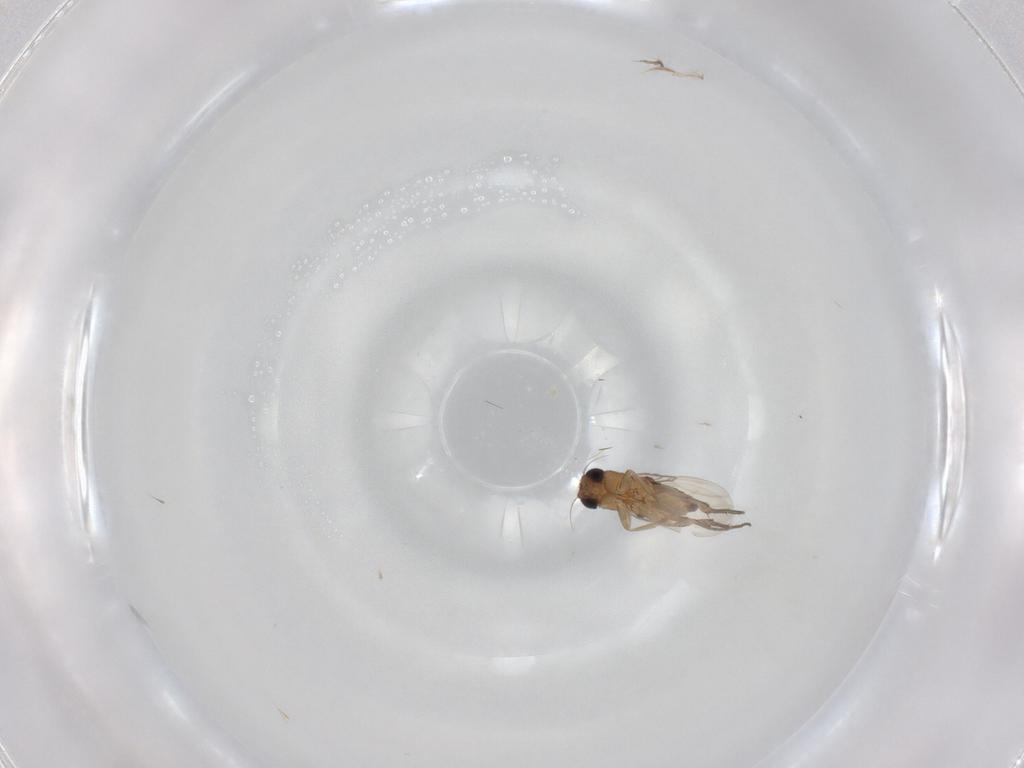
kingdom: Animalia
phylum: Arthropoda
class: Insecta
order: Diptera
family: Phoridae
